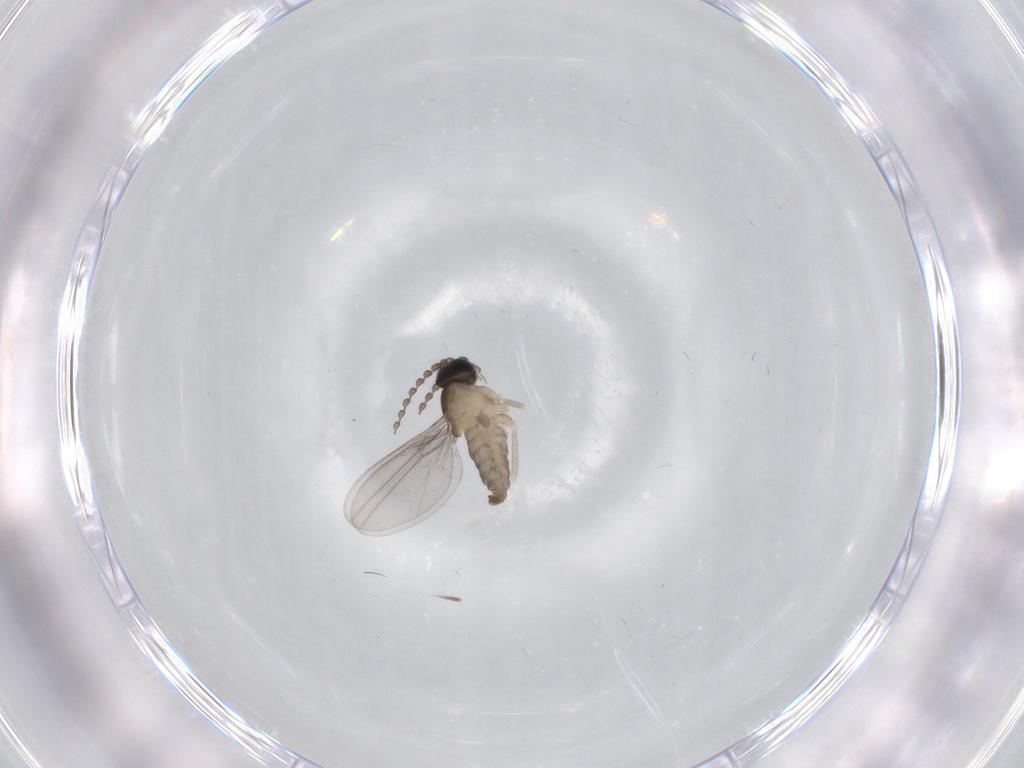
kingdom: Animalia
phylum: Arthropoda
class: Insecta
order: Diptera
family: Cecidomyiidae
